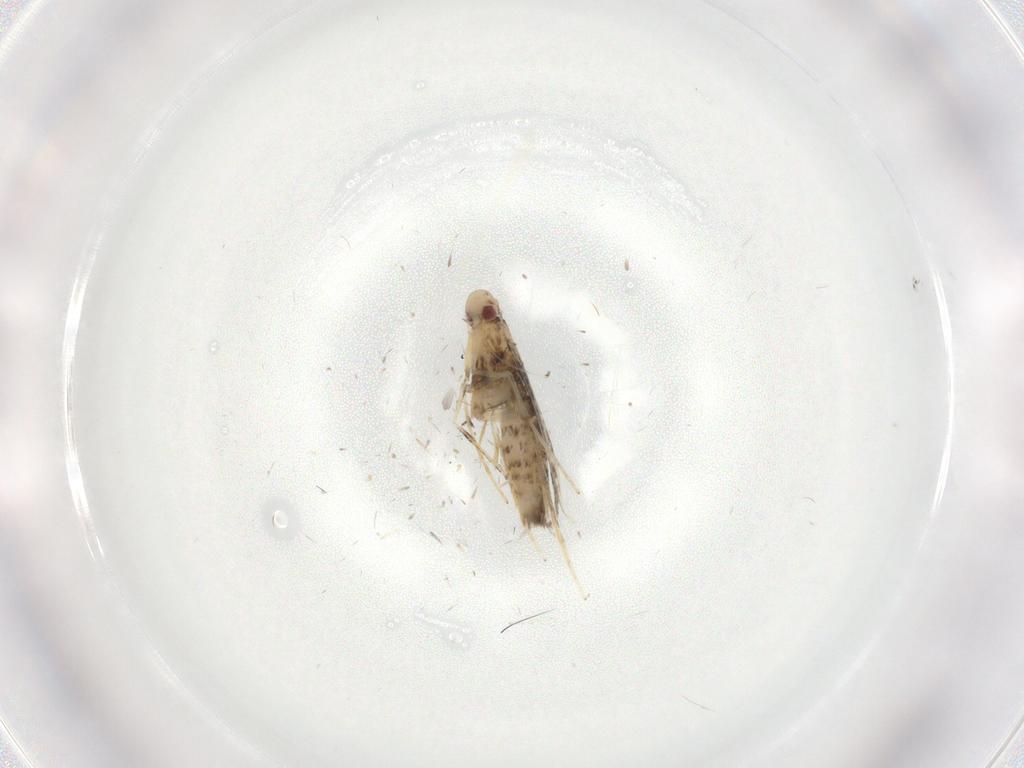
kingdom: Animalia
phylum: Arthropoda
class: Insecta
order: Lepidoptera
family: Gracillariidae
